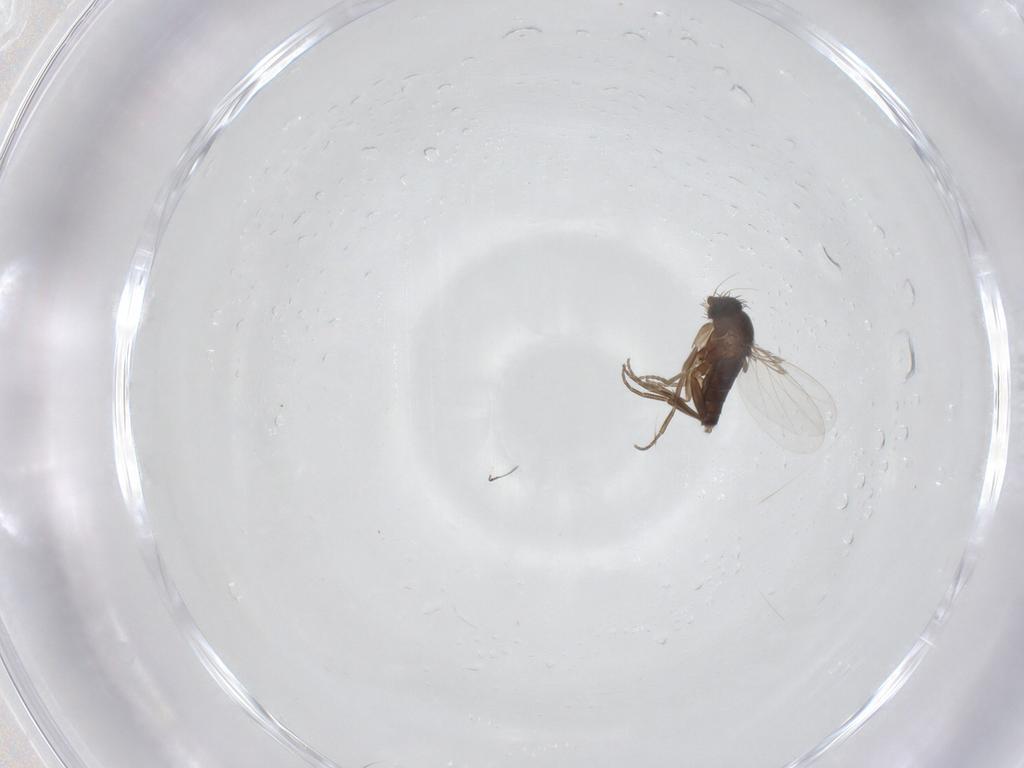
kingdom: Animalia
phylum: Arthropoda
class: Insecta
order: Diptera
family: Phoridae
